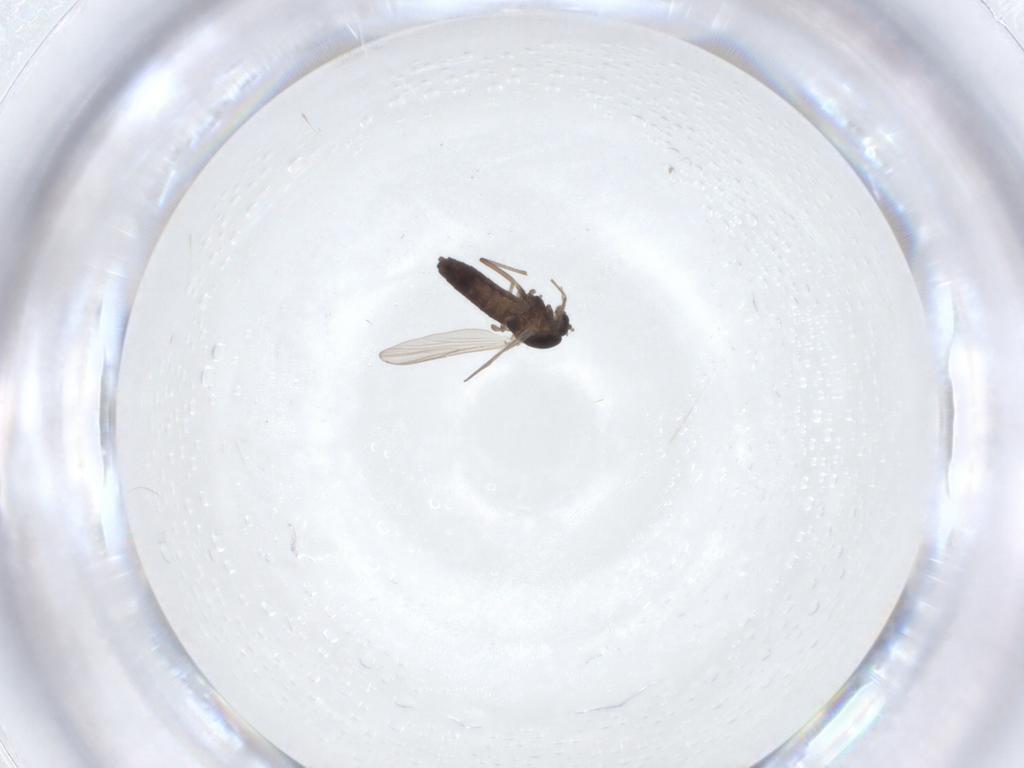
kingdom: Animalia
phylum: Arthropoda
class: Insecta
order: Diptera
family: Chironomidae
